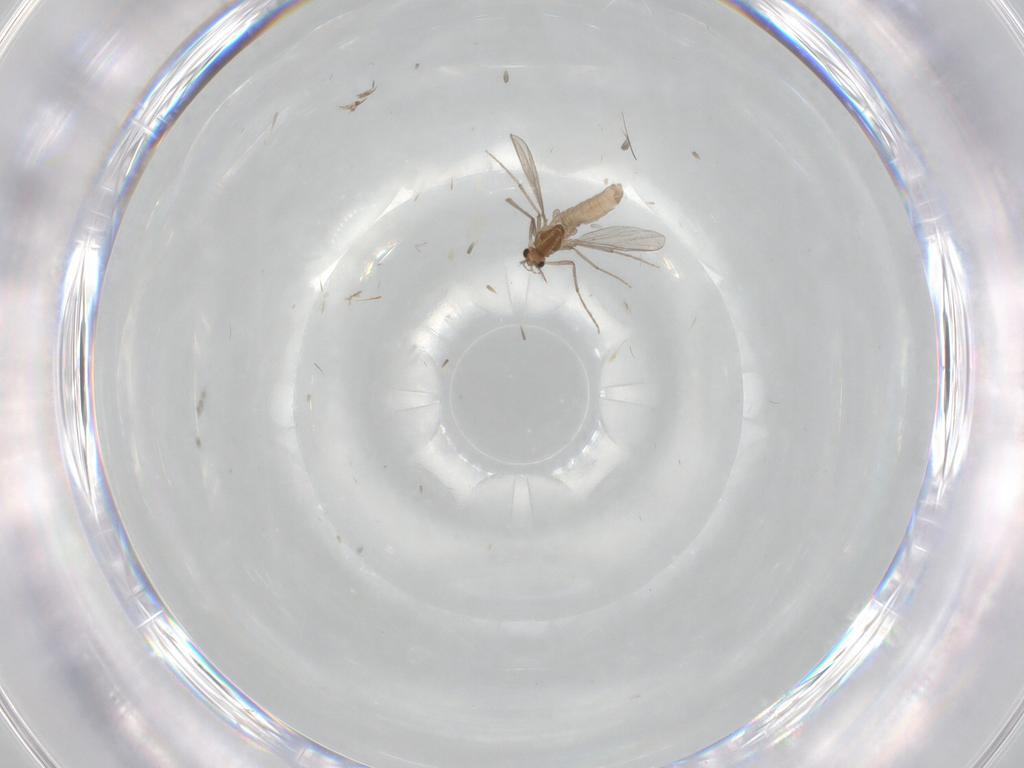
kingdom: Animalia
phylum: Arthropoda
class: Insecta
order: Diptera
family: Chironomidae
